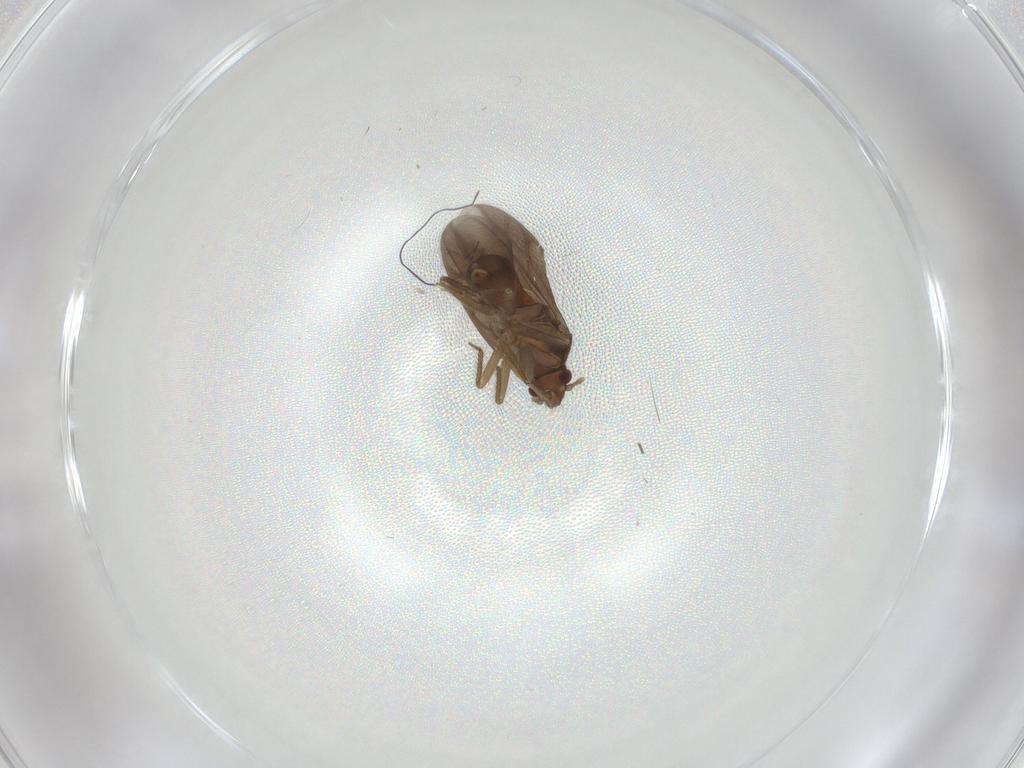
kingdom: Animalia
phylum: Arthropoda
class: Insecta
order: Hemiptera
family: Ceratocombidae
